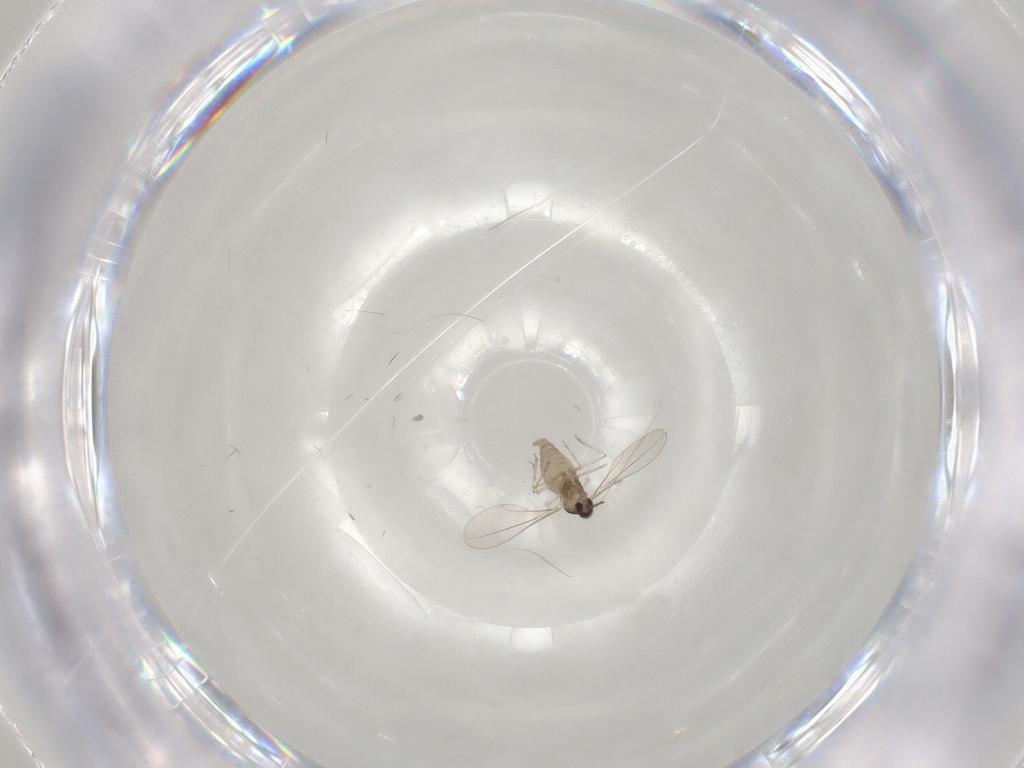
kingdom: Animalia
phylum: Arthropoda
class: Insecta
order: Diptera
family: Cecidomyiidae
